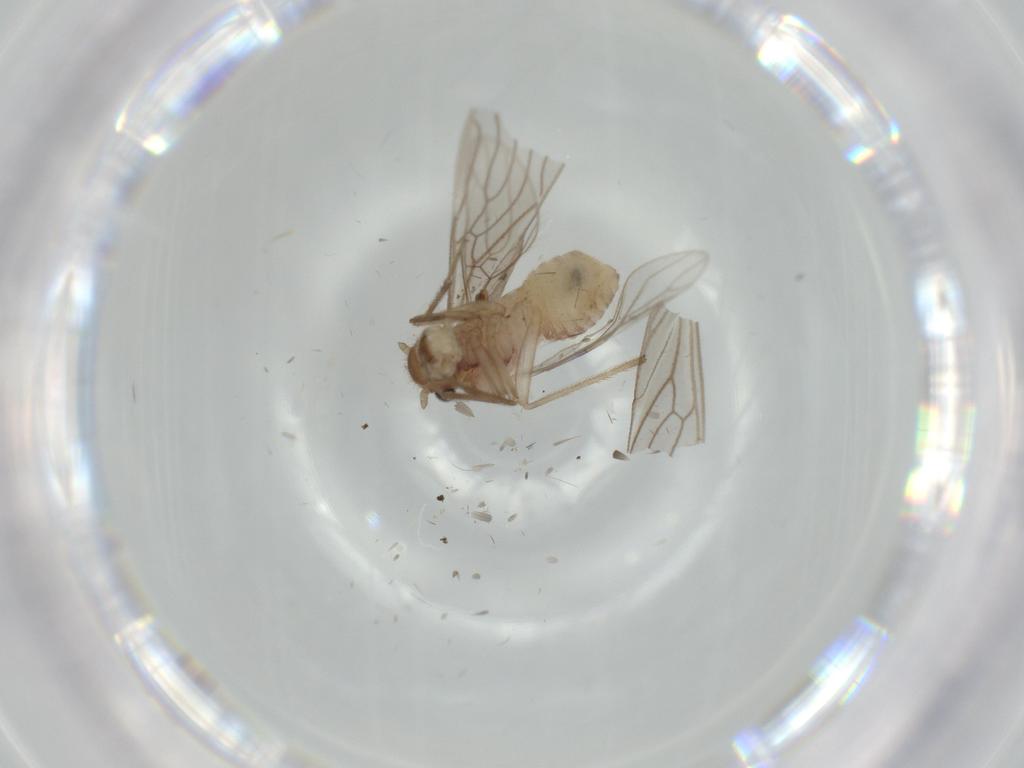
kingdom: Animalia
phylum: Arthropoda
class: Insecta
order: Psocodea
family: Cladiopsocidae
